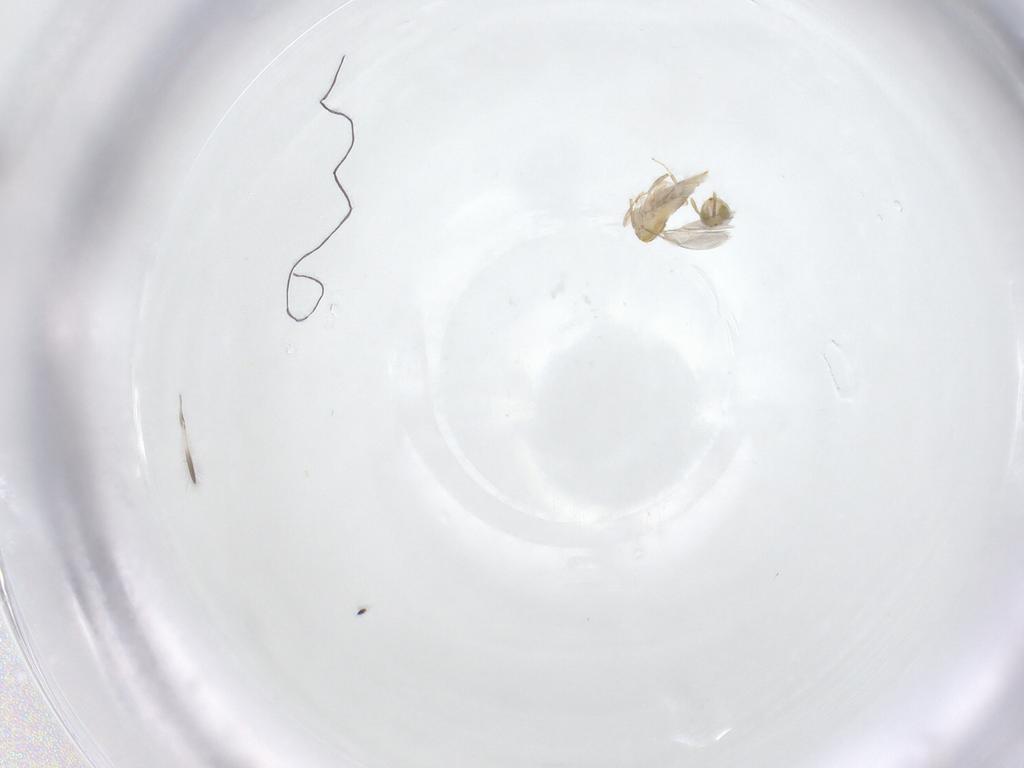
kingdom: Animalia
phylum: Arthropoda
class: Insecta
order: Hymenoptera
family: Aphelinidae
